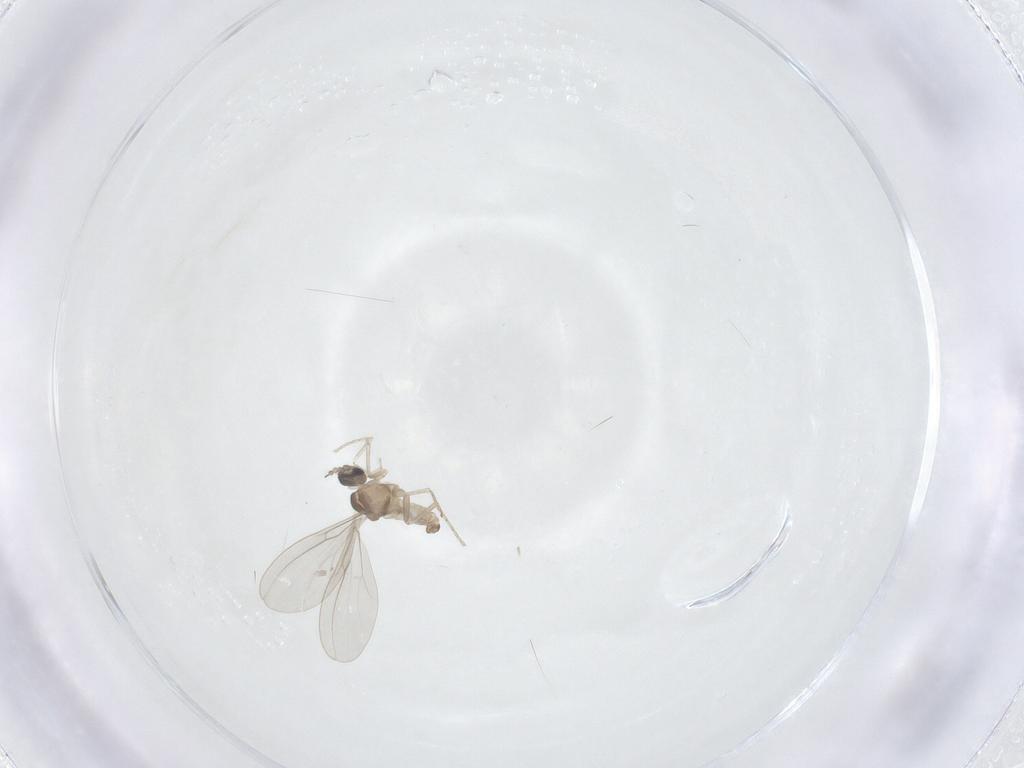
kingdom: Animalia
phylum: Arthropoda
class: Insecta
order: Diptera
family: Cecidomyiidae
